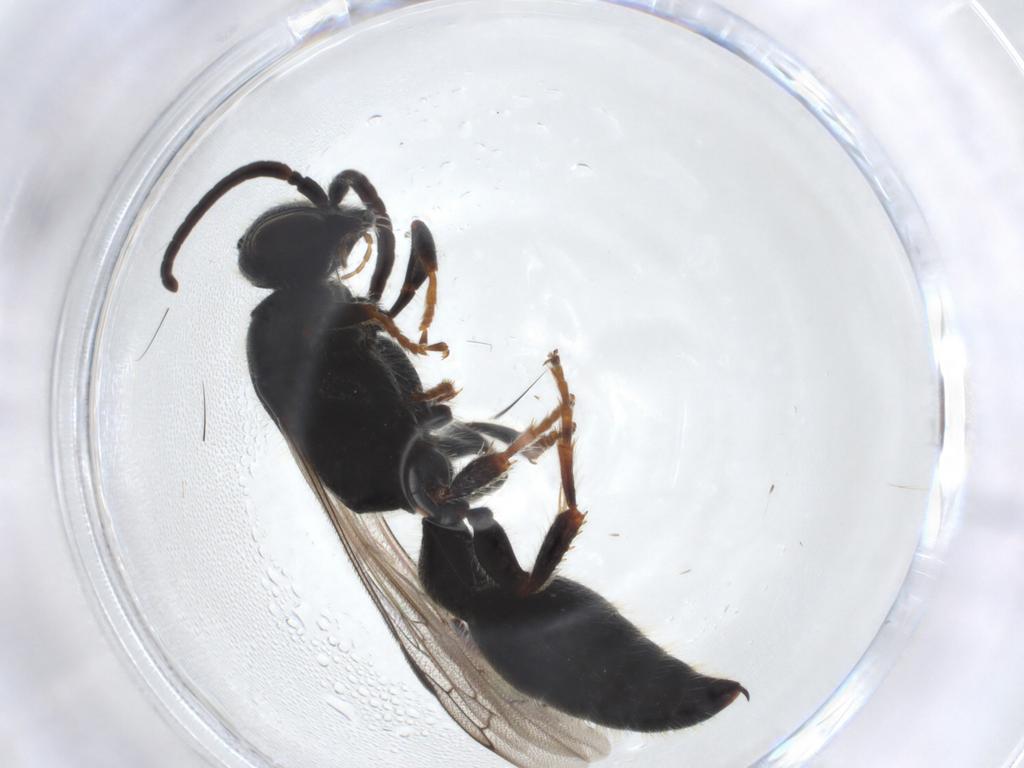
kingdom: Animalia
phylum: Arthropoda
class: Insecta
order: Hymenoptera
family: Tiphiidae
